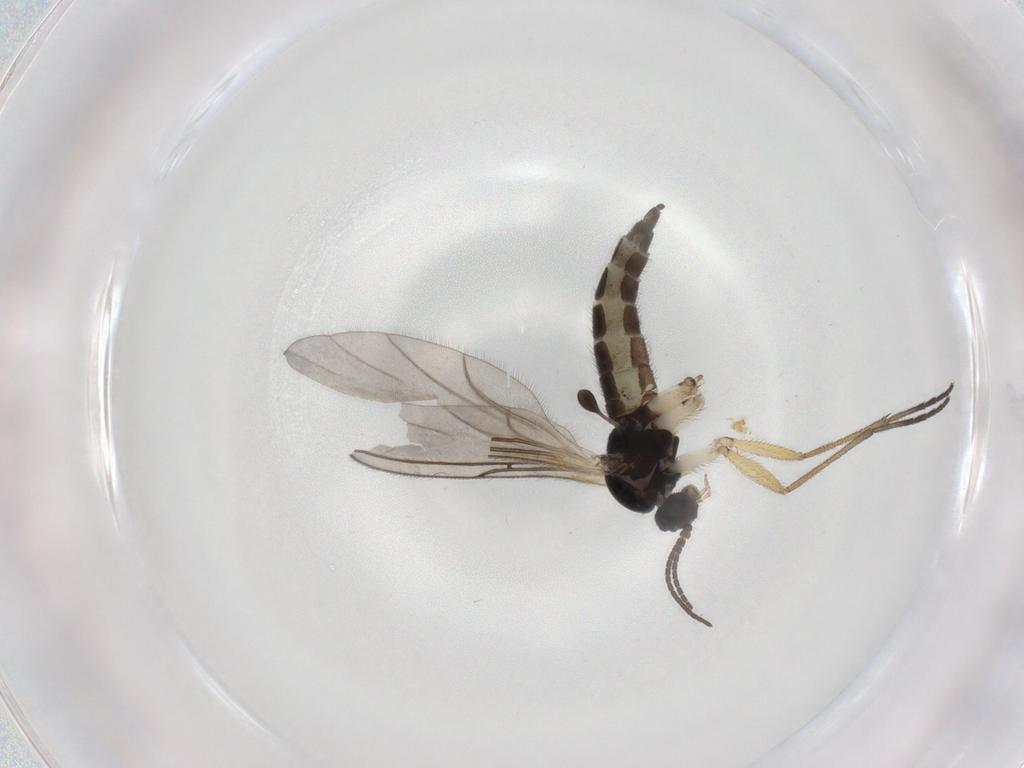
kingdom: Animalia
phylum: Arthropoda
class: Insecta
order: Diptera
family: Sciaridae
